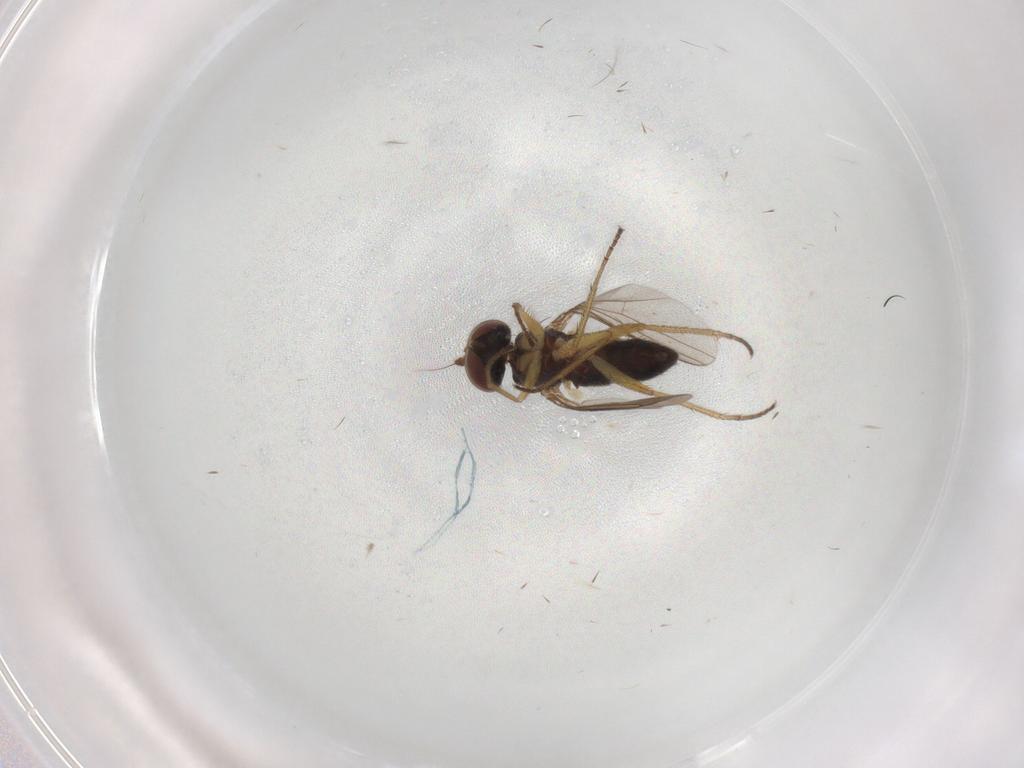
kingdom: Animalia
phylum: Arthropoda
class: Insecta
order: Diptera
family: Dolichopodidae
